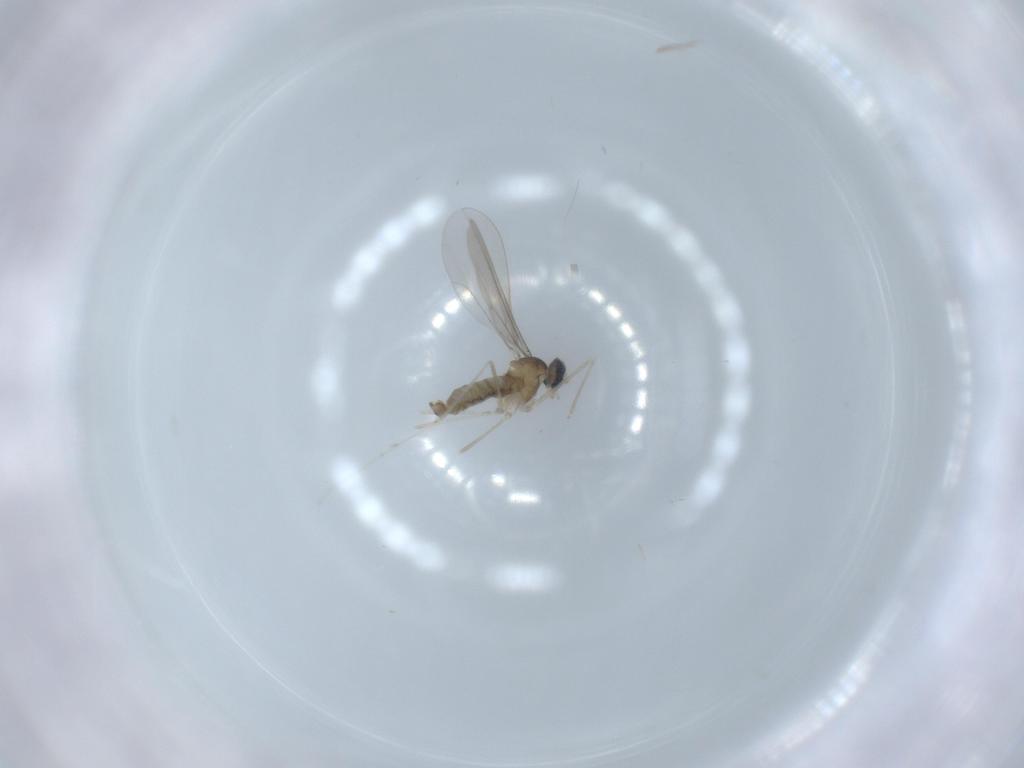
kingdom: Animalia
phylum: Arthropoda
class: Insecta
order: Diptera
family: Cecidomyiidae
